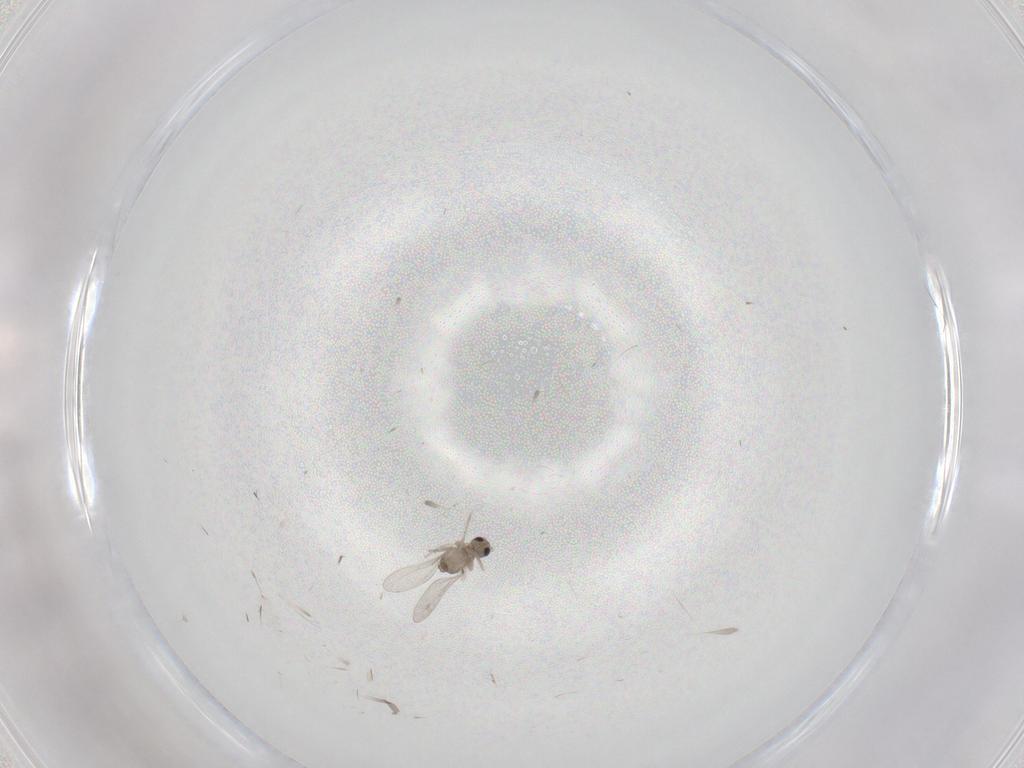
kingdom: Animalia
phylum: Arthropoda
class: Insecta
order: Diptera
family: Cecidomyiidae
